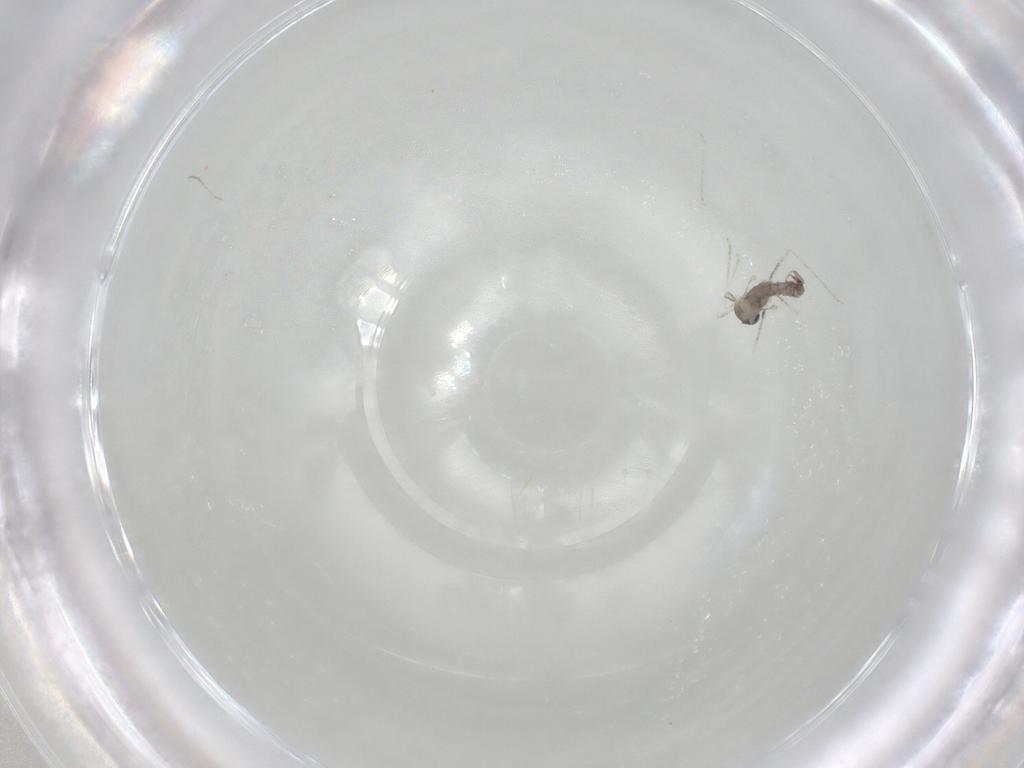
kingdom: Animalia
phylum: Arthropoda
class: Insecta
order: Diptera
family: Cecidomyiidae
